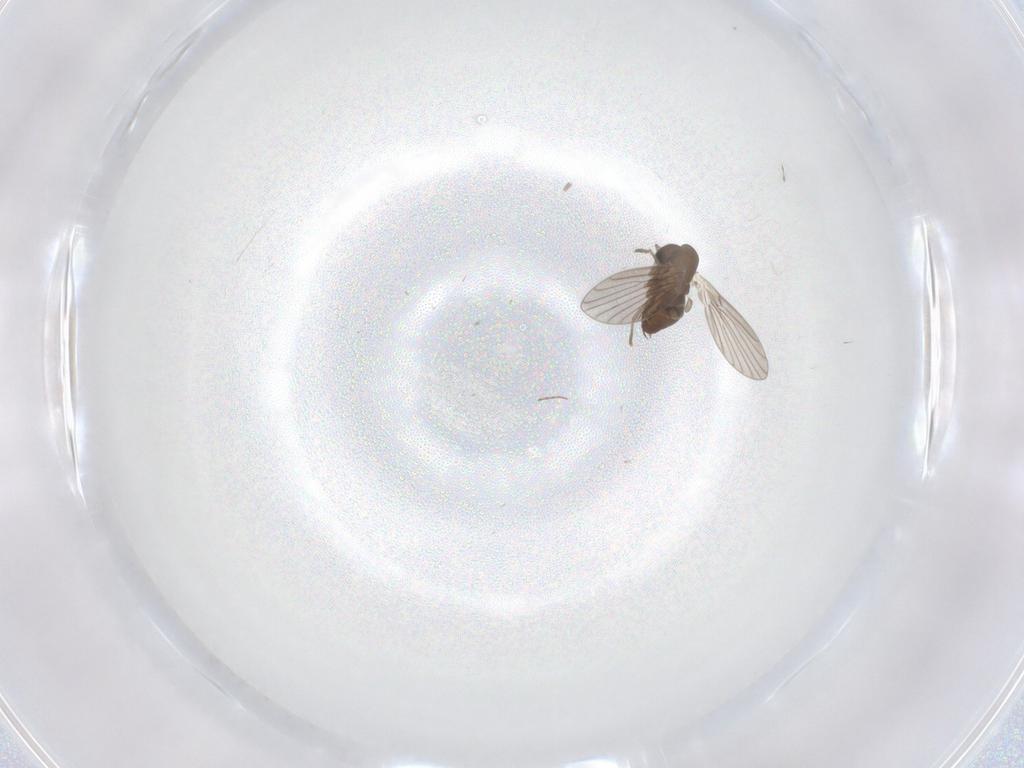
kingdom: Animalia
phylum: Arthropoda
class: Insecta
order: Diptera
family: Chironomidae
